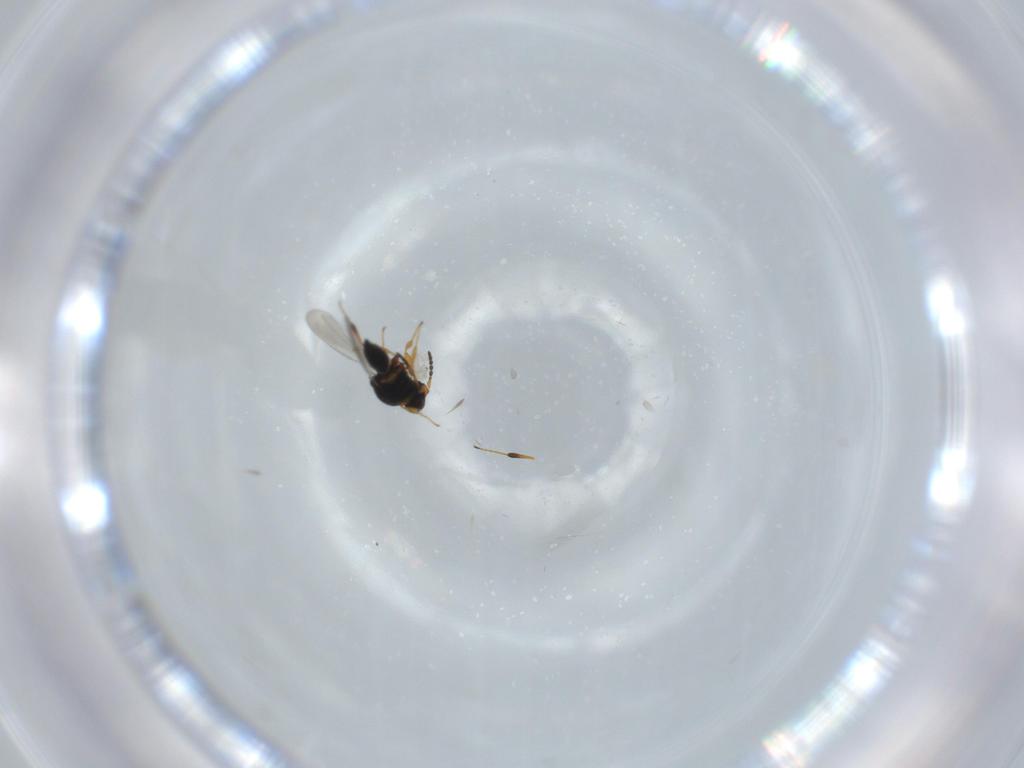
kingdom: Animalia
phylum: Arthropoda
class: Insecta
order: Hymenoptera
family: Platygastridae
